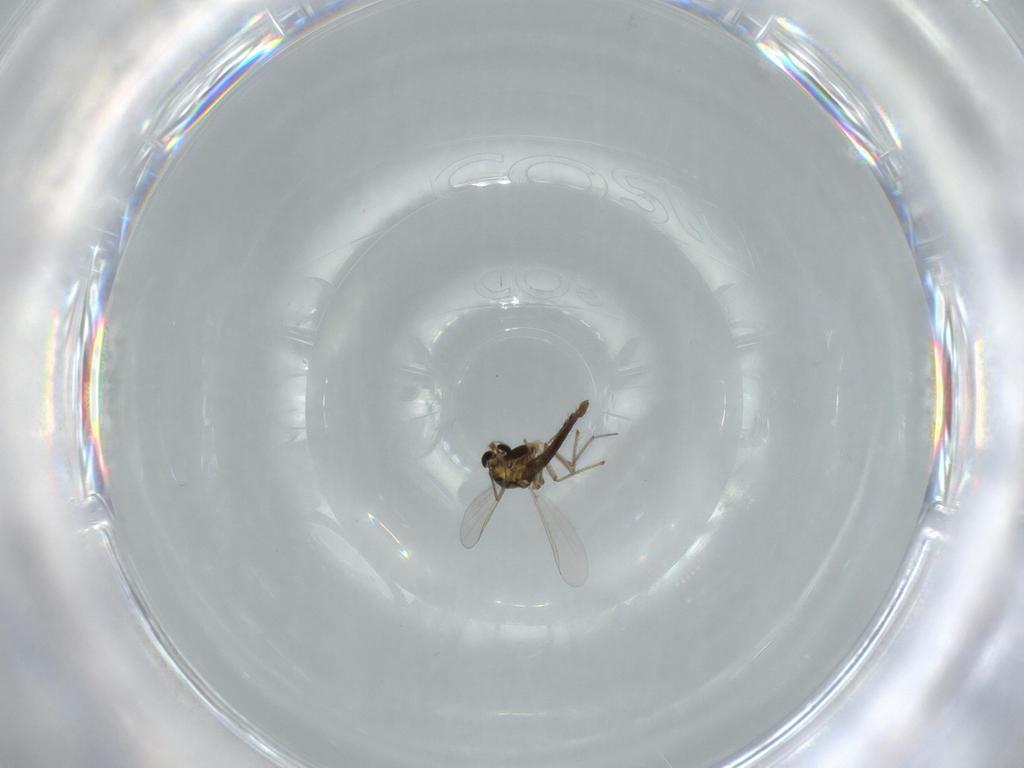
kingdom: Animalia
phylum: Arthropoda
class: Insecta
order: Diptera
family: Chironomidae
